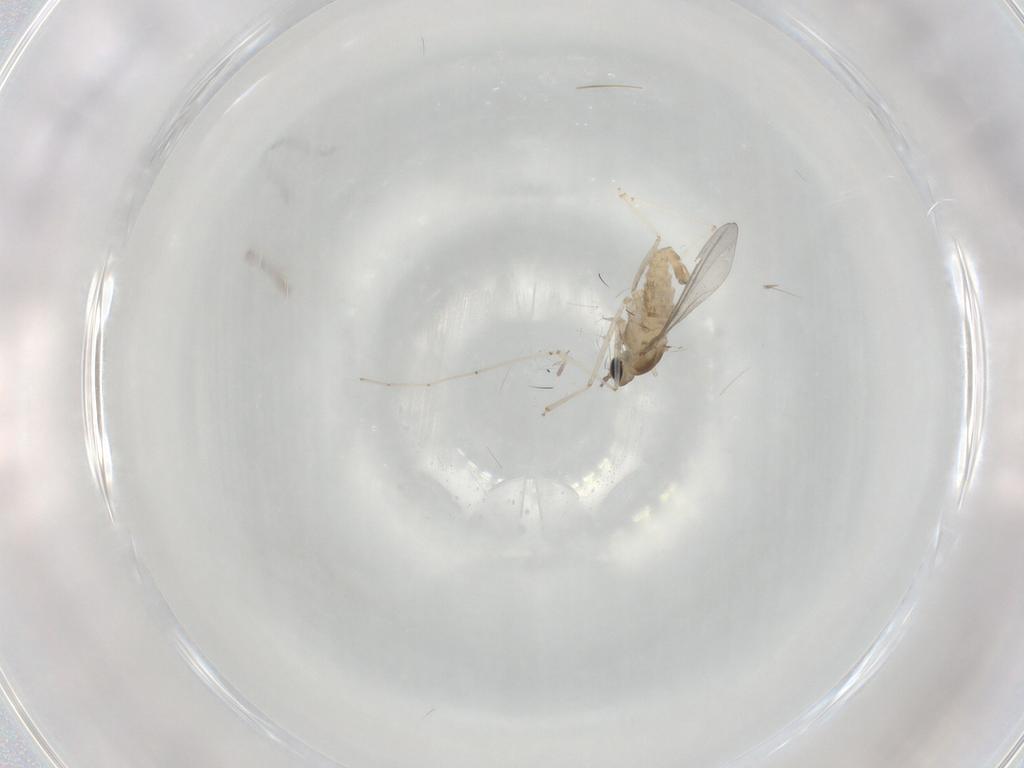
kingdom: Animalia
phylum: Arthropoda
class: Insecta
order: Diptera
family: Cecidomyiidae
